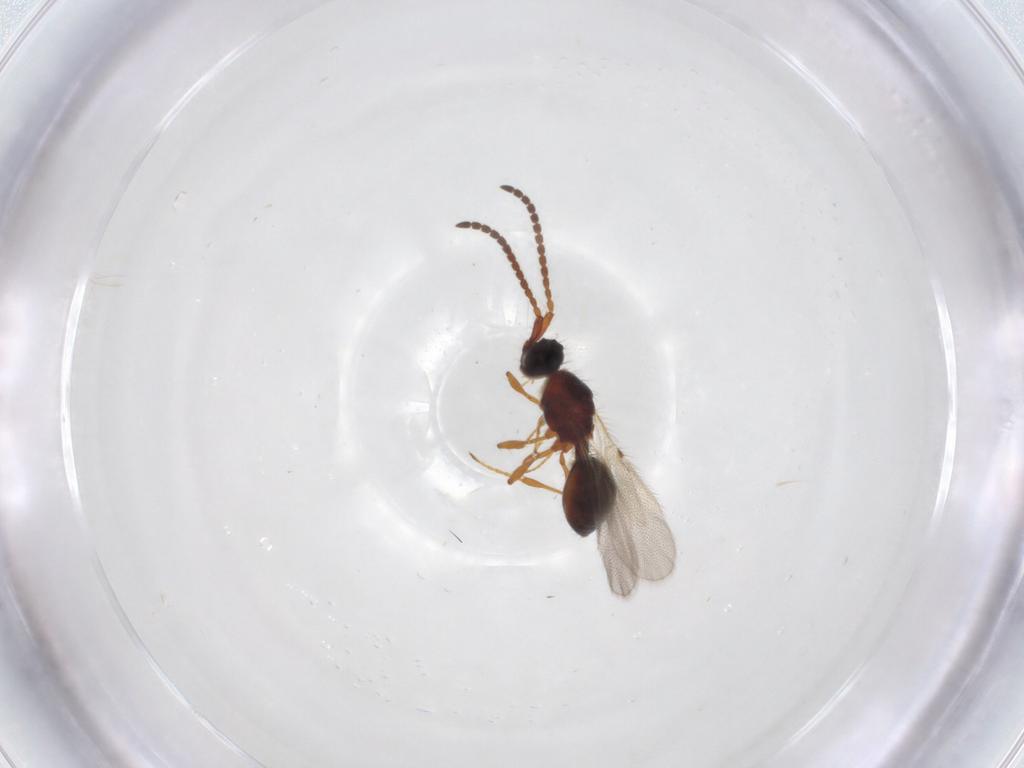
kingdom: Animalia
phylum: Arthropoda
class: Insecta
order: Hymenoptera
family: Diapriidae
